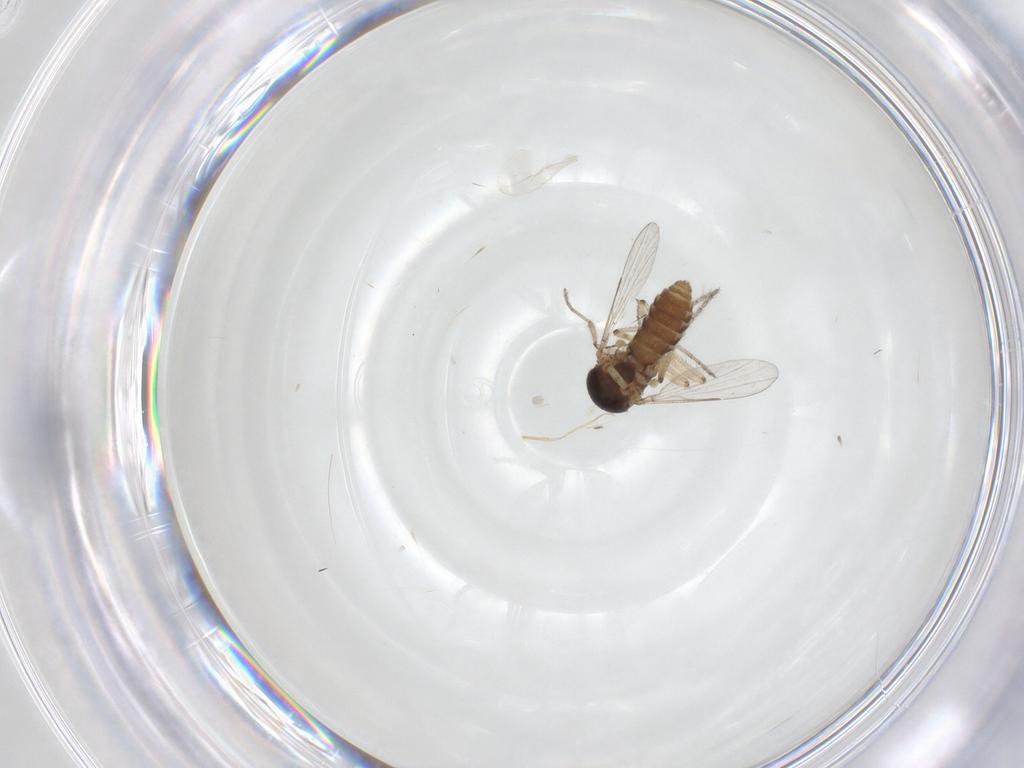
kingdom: Animalia
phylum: Arthropoda
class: Insecta
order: Diptera
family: Ceratopogonidae
